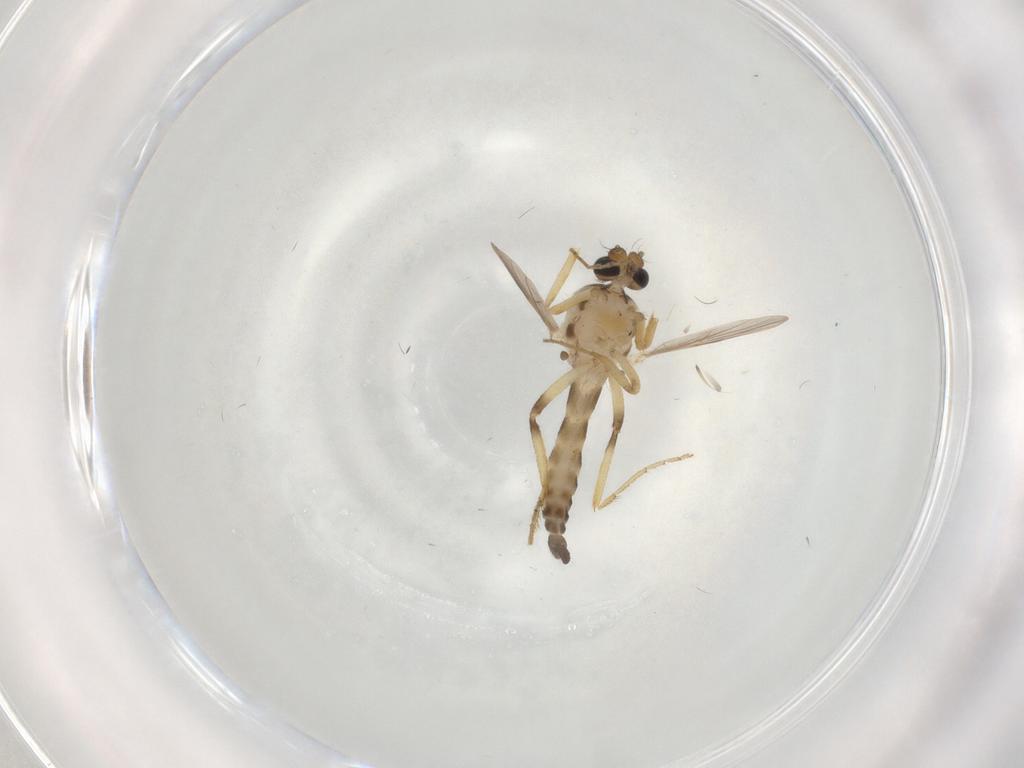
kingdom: Animalia
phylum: Arthropoda
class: Insecta
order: Diptera
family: Ceratopogonidae
